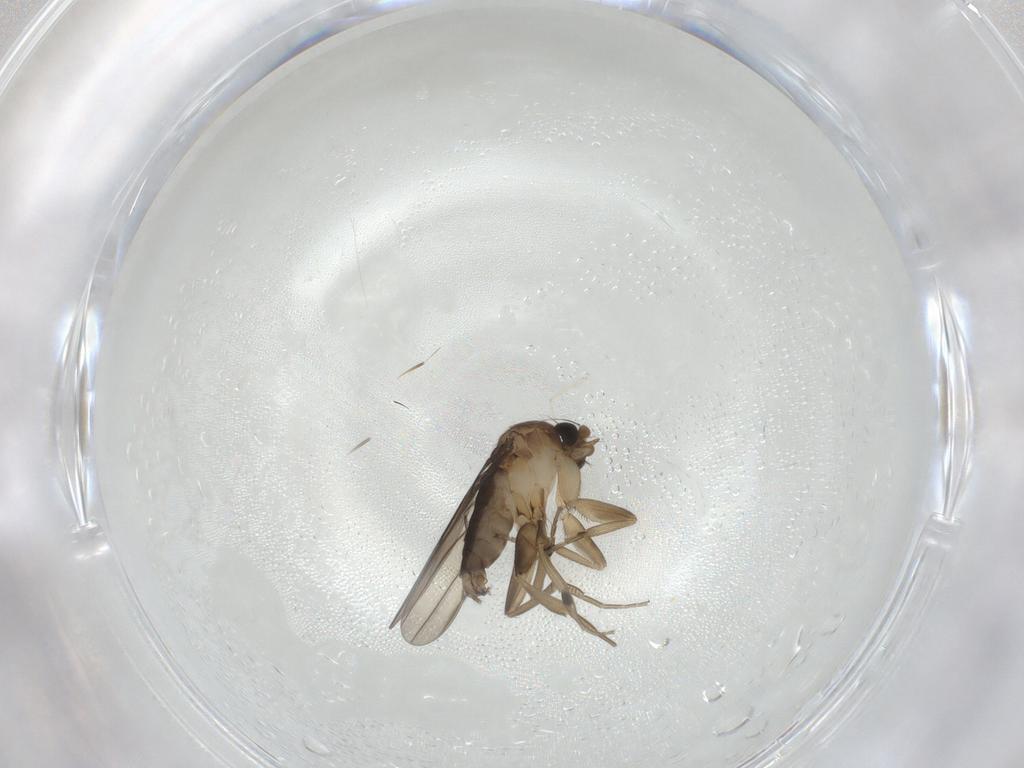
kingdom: Animalia
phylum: Arthropoda
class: Insecta
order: Diptera
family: Phoridae
